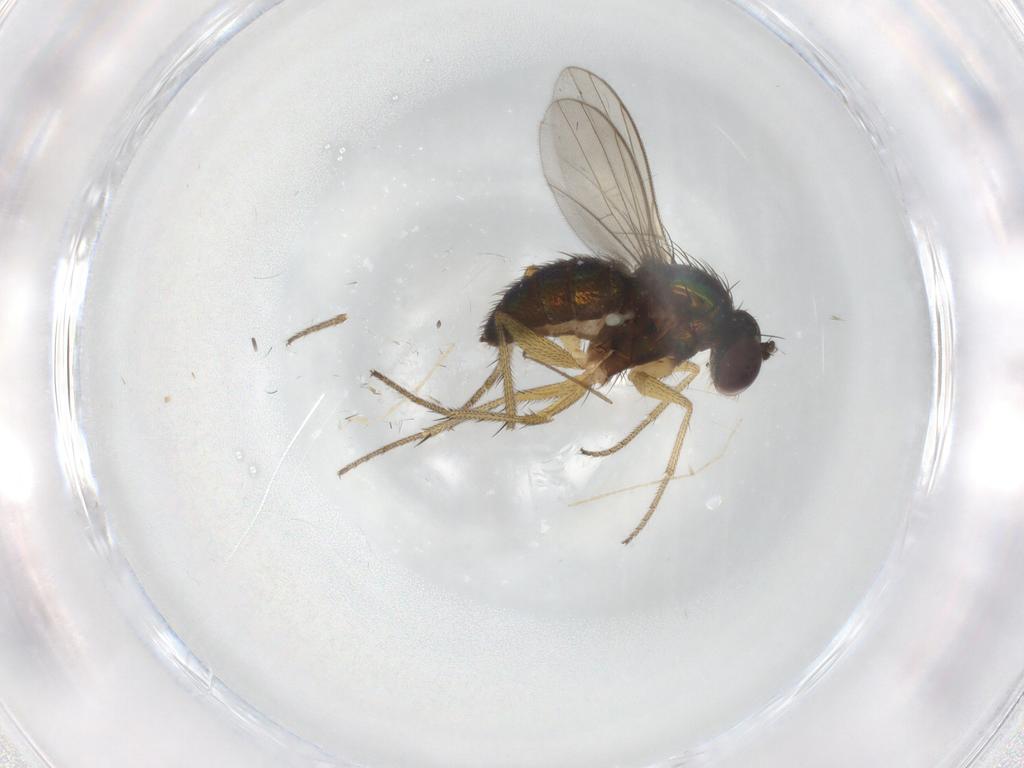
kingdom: Animalia
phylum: Arthropoda
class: Insecta
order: Diptera
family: Chironomidae
